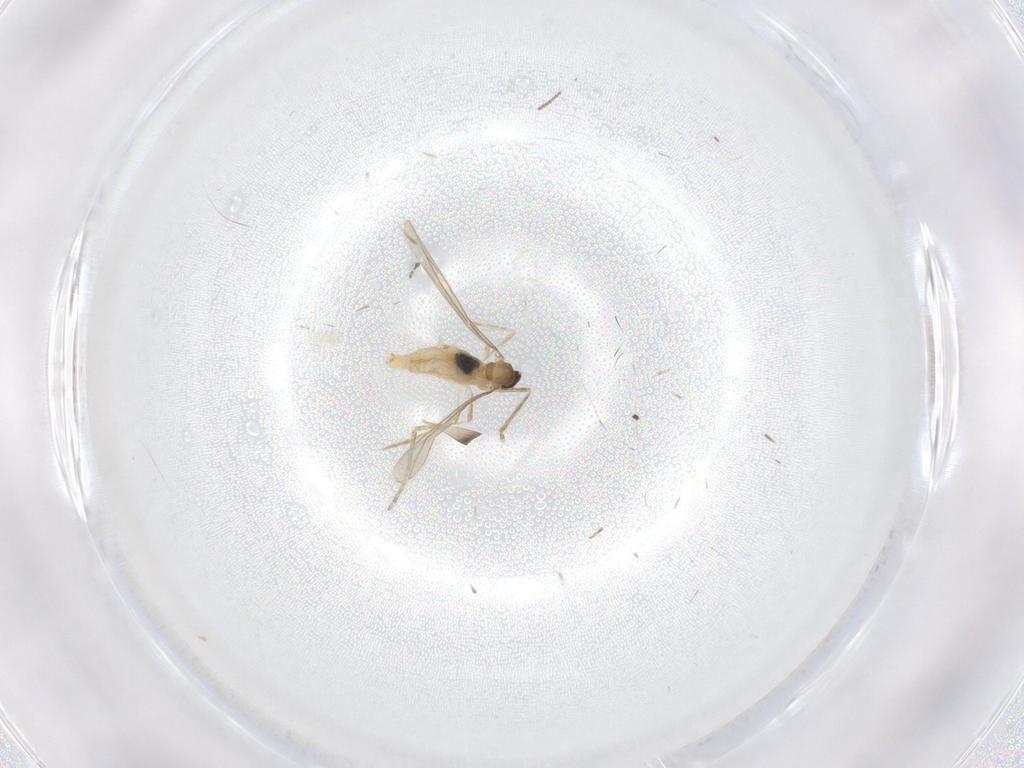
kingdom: Animalia
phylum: Arthropoda
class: Insecta
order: Diptera
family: Cecidomyiidae
